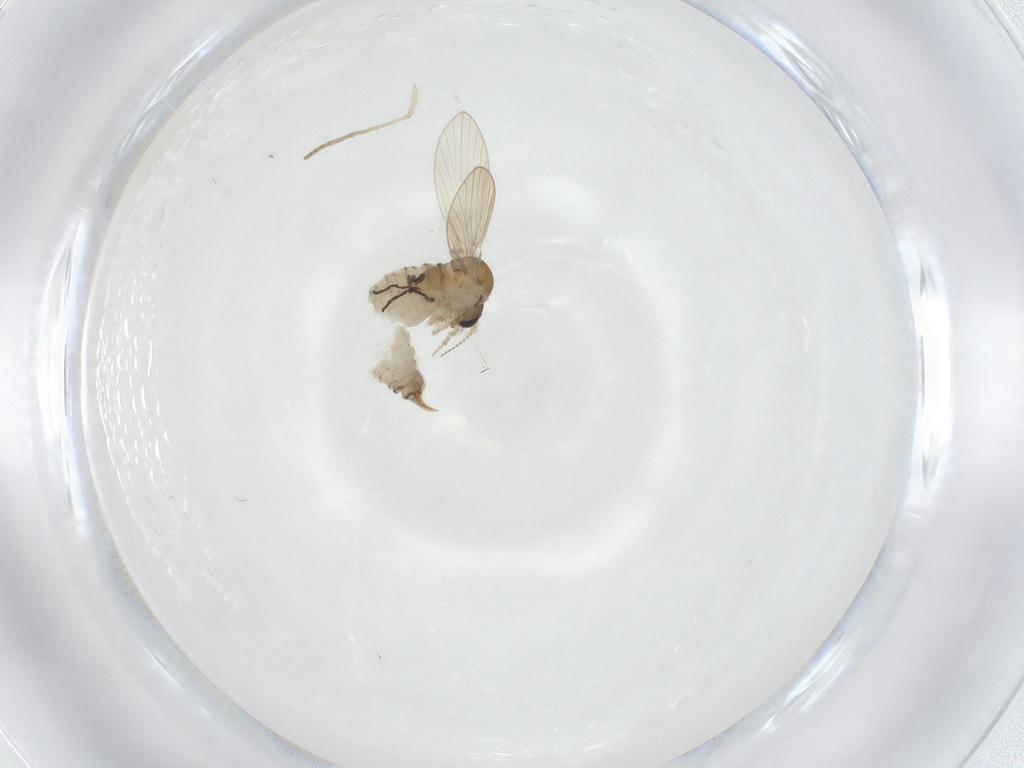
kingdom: Animalia
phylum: Arthropoda
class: Insecta
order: Diptera
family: Psychodidae
